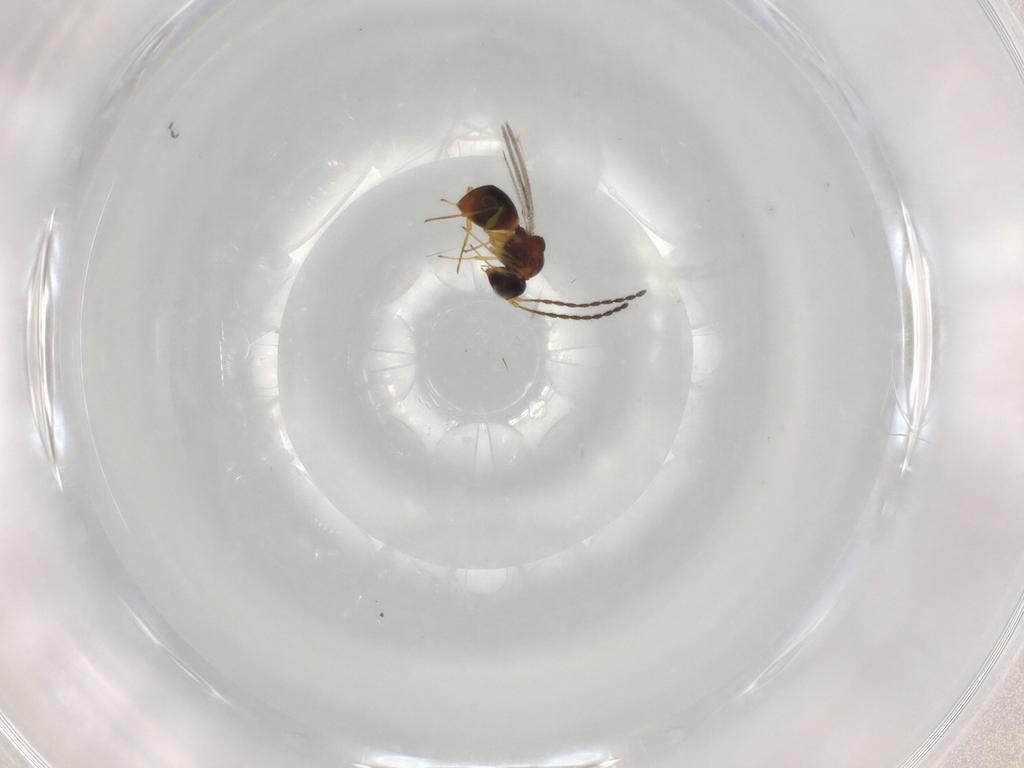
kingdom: Animalia
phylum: Arthropoda
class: Insecta
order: Hymenoptera
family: Figitidae
